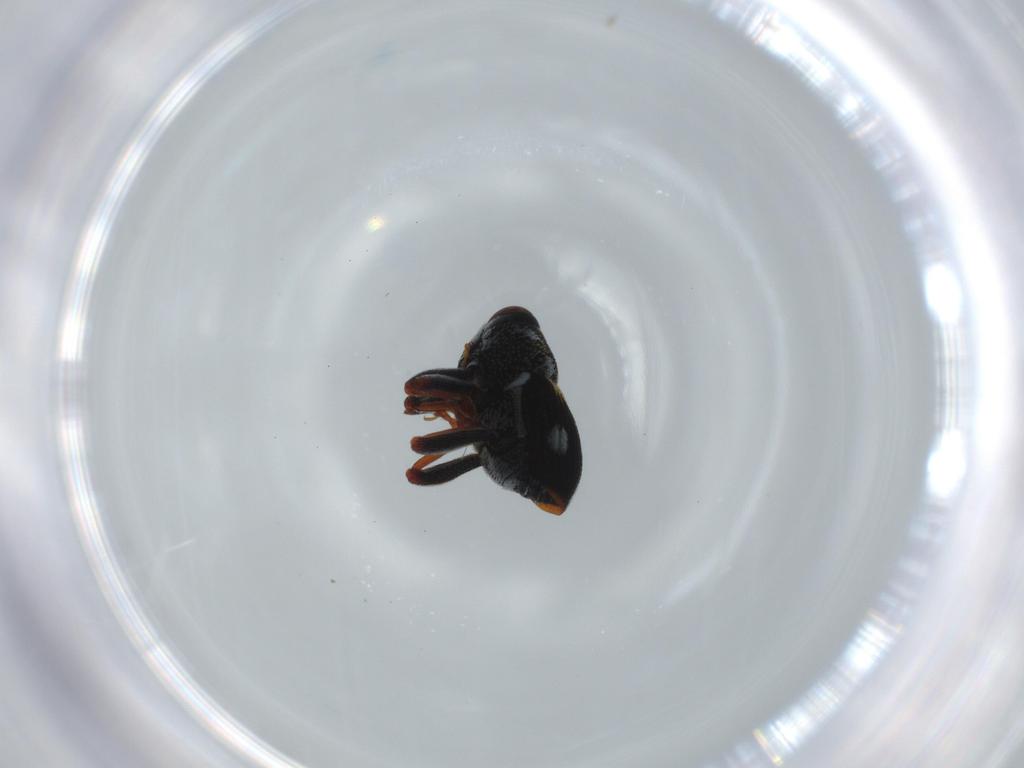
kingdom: Animalia
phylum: Arthropoda
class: Insecta
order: Coleoptera
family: Curculionidae
